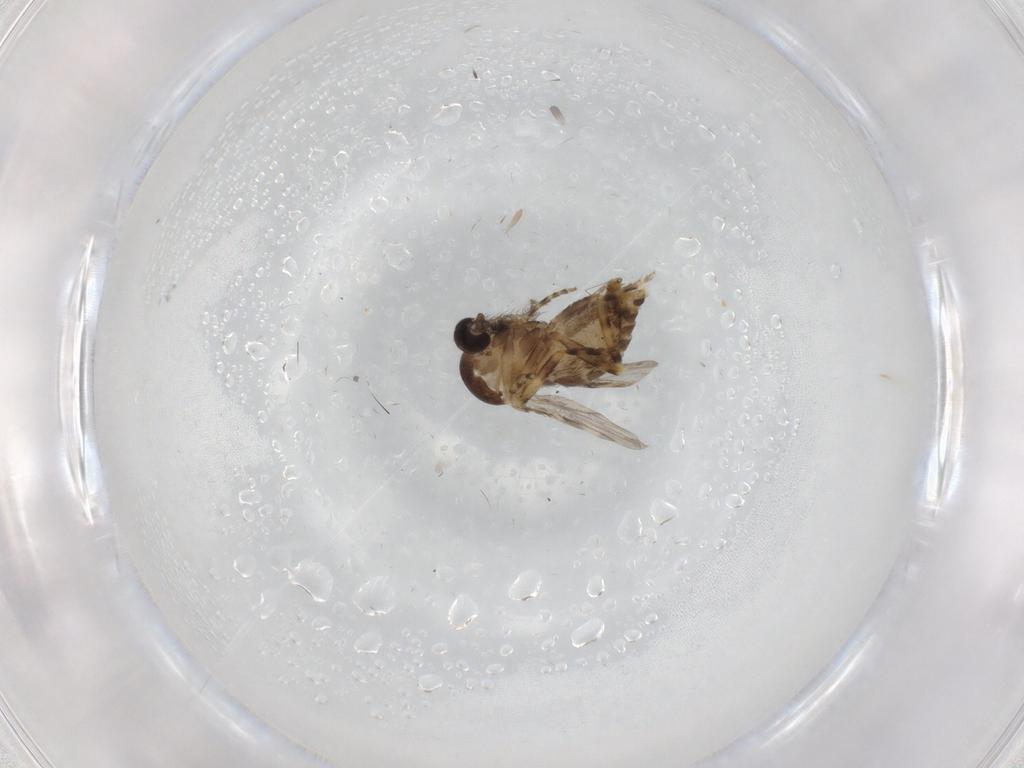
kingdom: Animalia
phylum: Arthropoda
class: Insecta
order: Diptera
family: Ceratopogonidae
